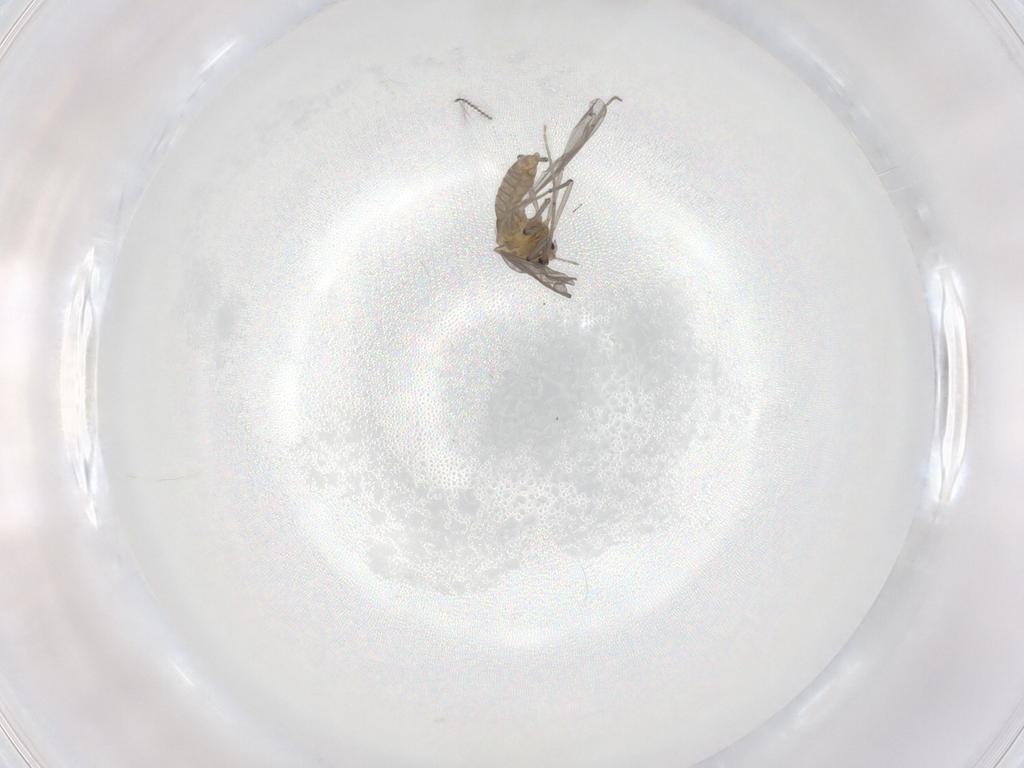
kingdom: Animalia
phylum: Arthropoda
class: Insecta
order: Diptera
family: Chironomidae
